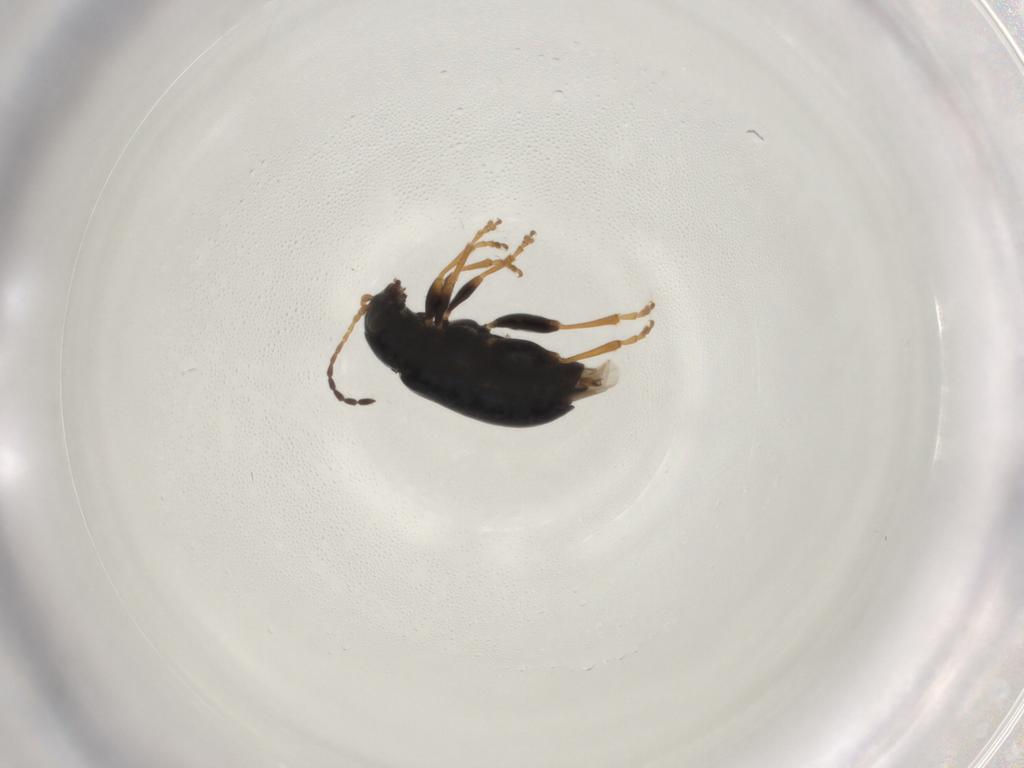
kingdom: Animalia
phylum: Arthropoda
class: Insecta
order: Coleoptera
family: Chrysomelidae
